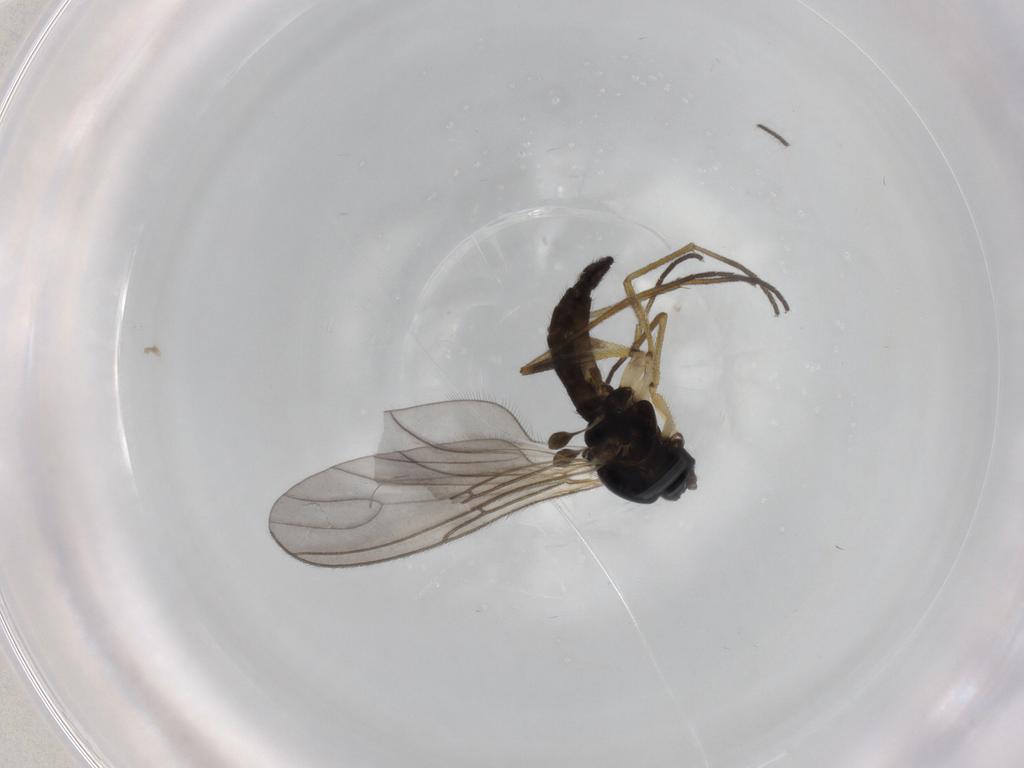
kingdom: Animalia
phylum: Arthropoda
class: Insecta
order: Diptera
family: Sciaridae
